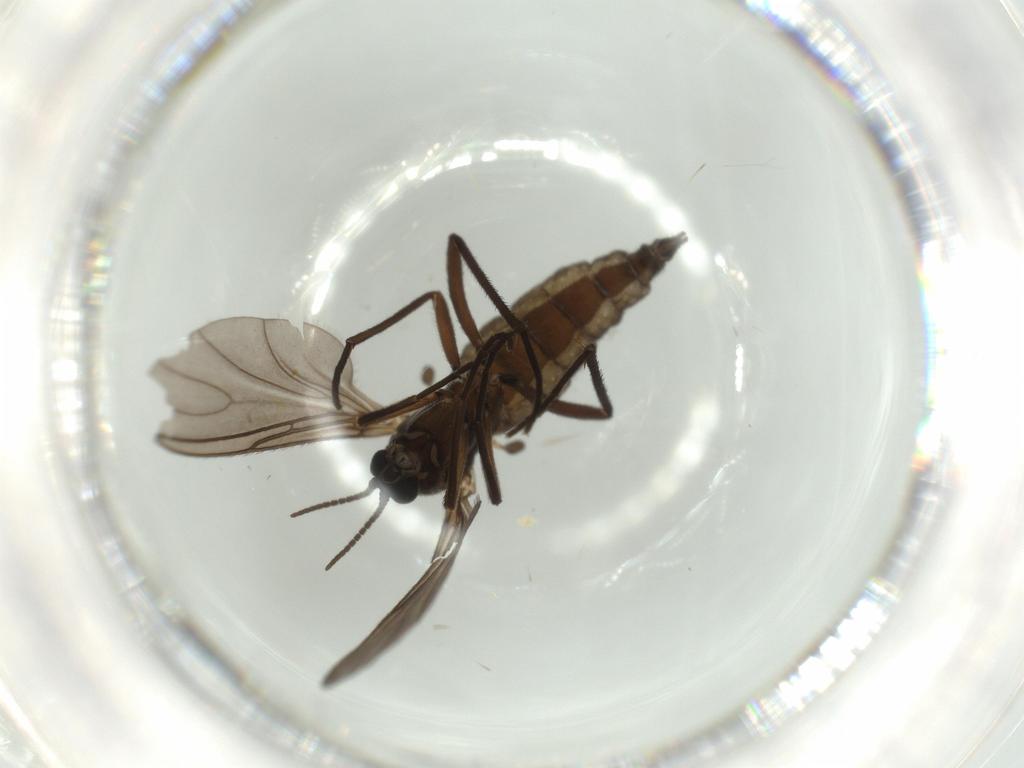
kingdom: Animalia
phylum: Arthropoda
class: Insecta
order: Diptera
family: Sciaridae
